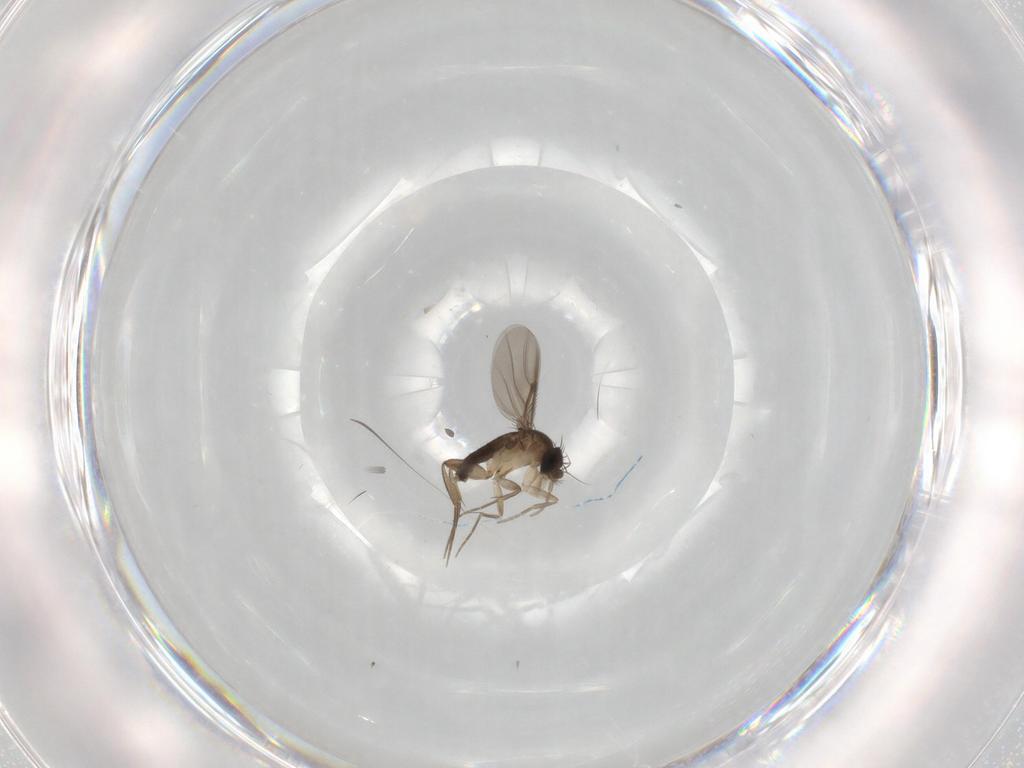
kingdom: Animalia
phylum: Arthropoda
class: Insecta
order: Diptera
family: Phoridae
